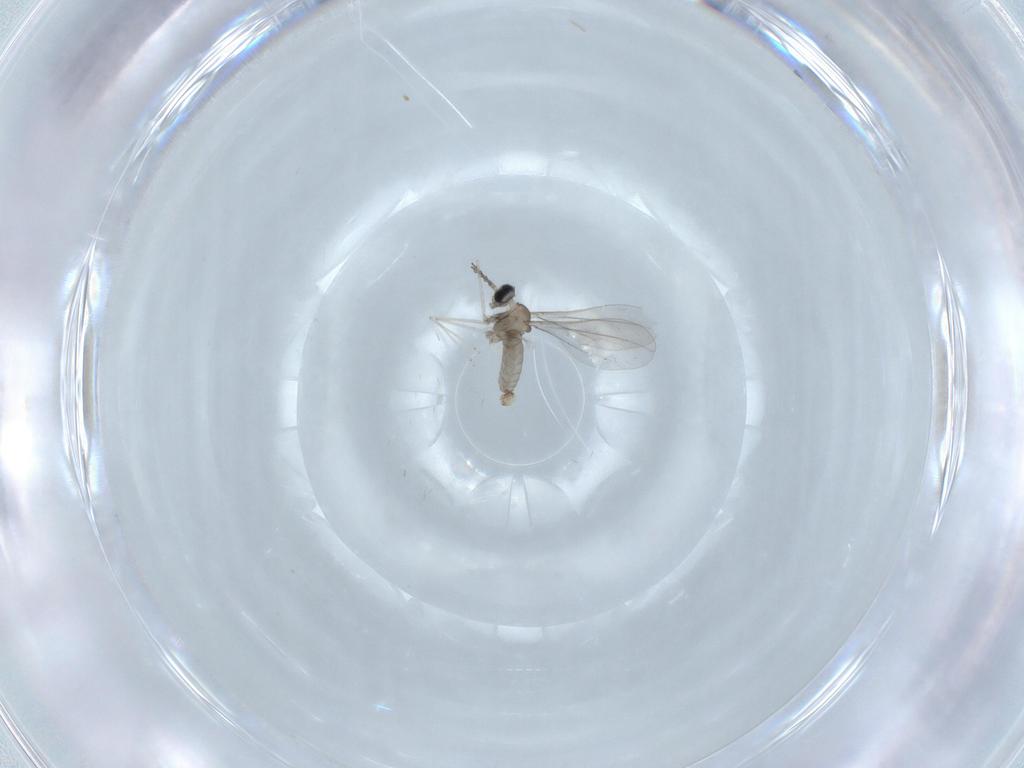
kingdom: Animalia
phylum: Arthropoda
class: Insecta
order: Diptera
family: Cecidomyiidae
